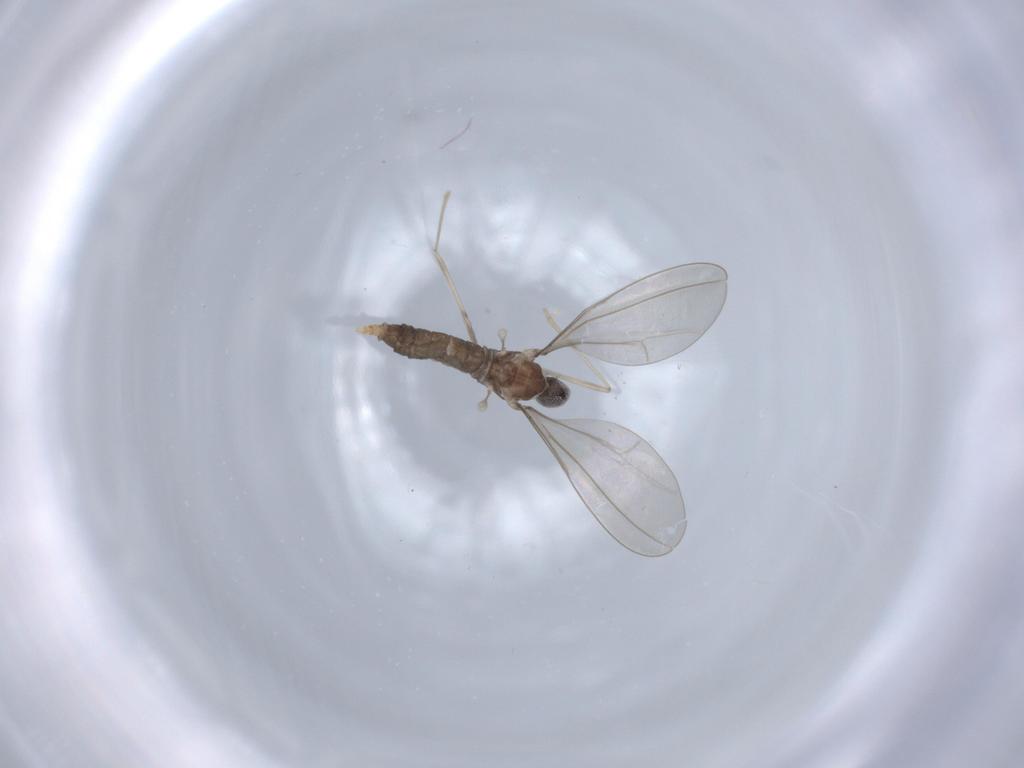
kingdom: Animalia
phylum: Arthropoda
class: Insecta
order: Diptera
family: Cecidomyiidae
